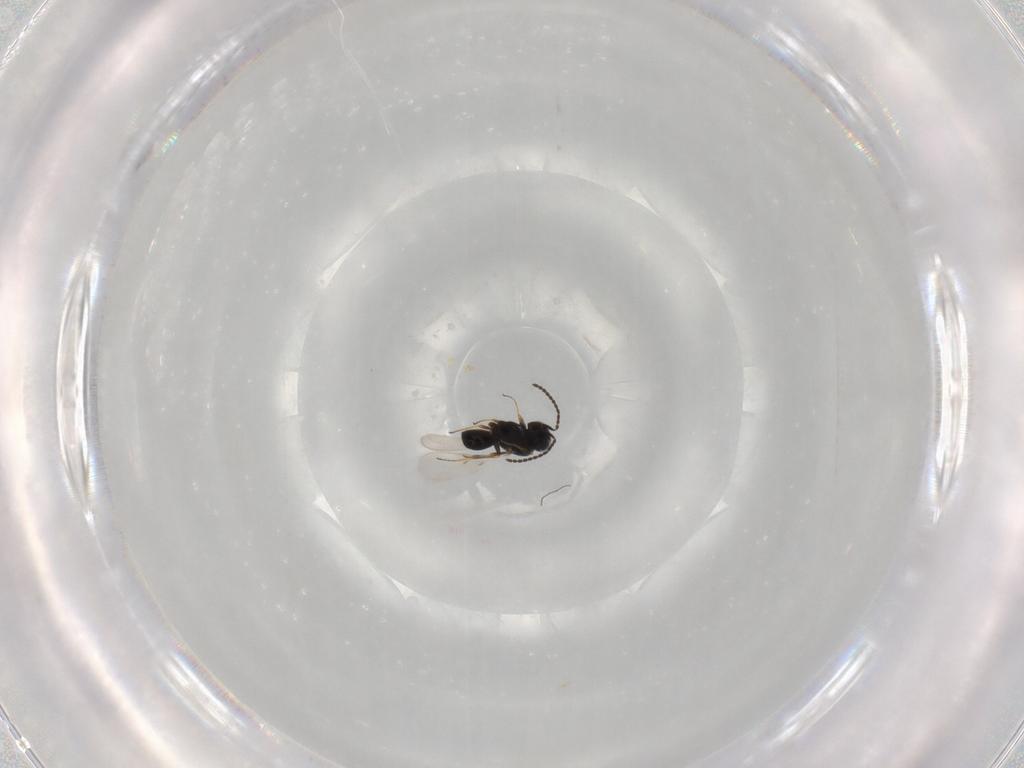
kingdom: Animalia
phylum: Arthropoda
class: Insecta
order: Hymenoptera
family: Scelionidae
